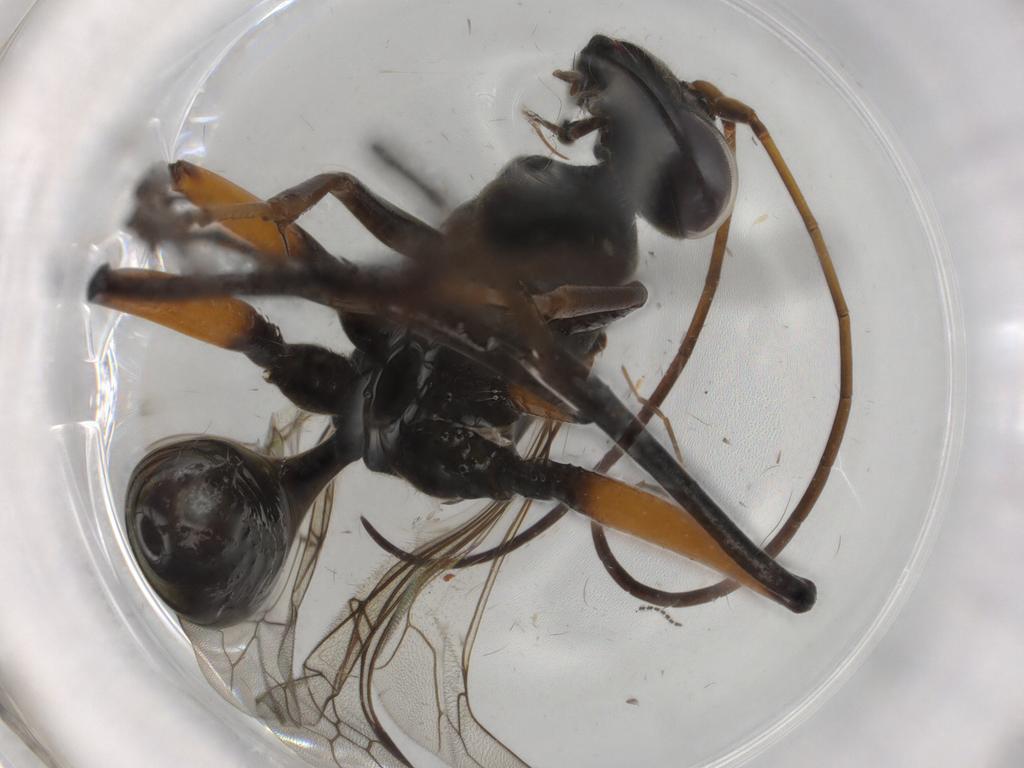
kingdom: Animalia
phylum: Arthropoda
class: Insecta
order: Hymenoptera
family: Pompilidae
